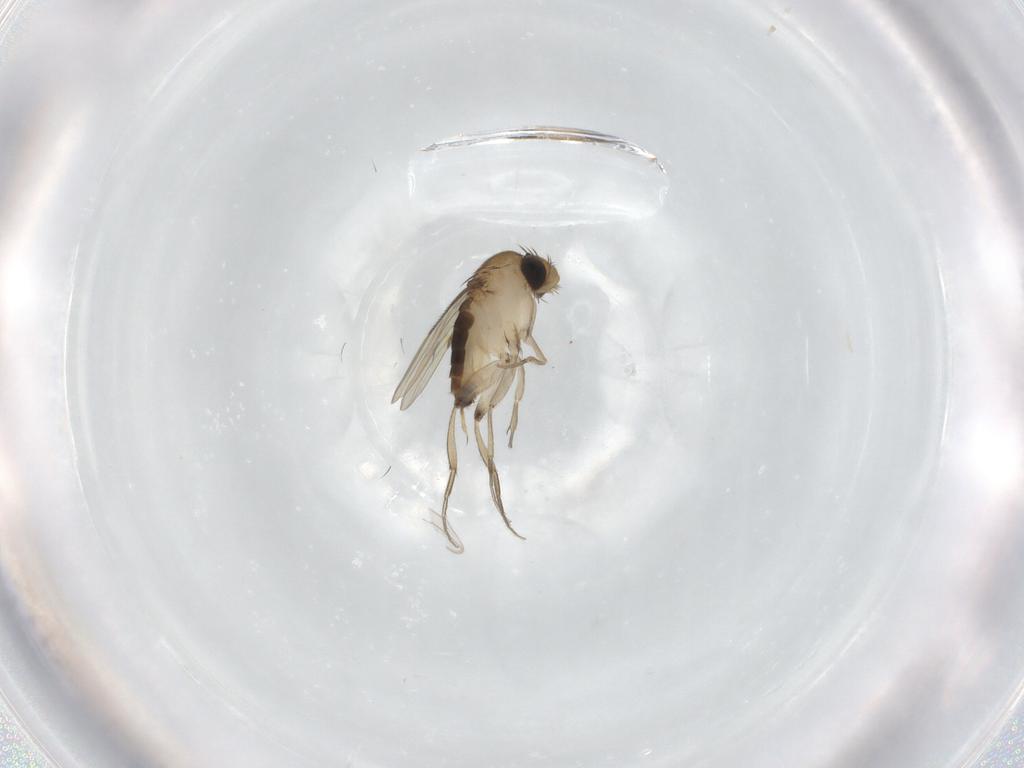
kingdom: Animalia
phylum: Arthropoda
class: Insecta
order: Diptera
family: Phoridae
